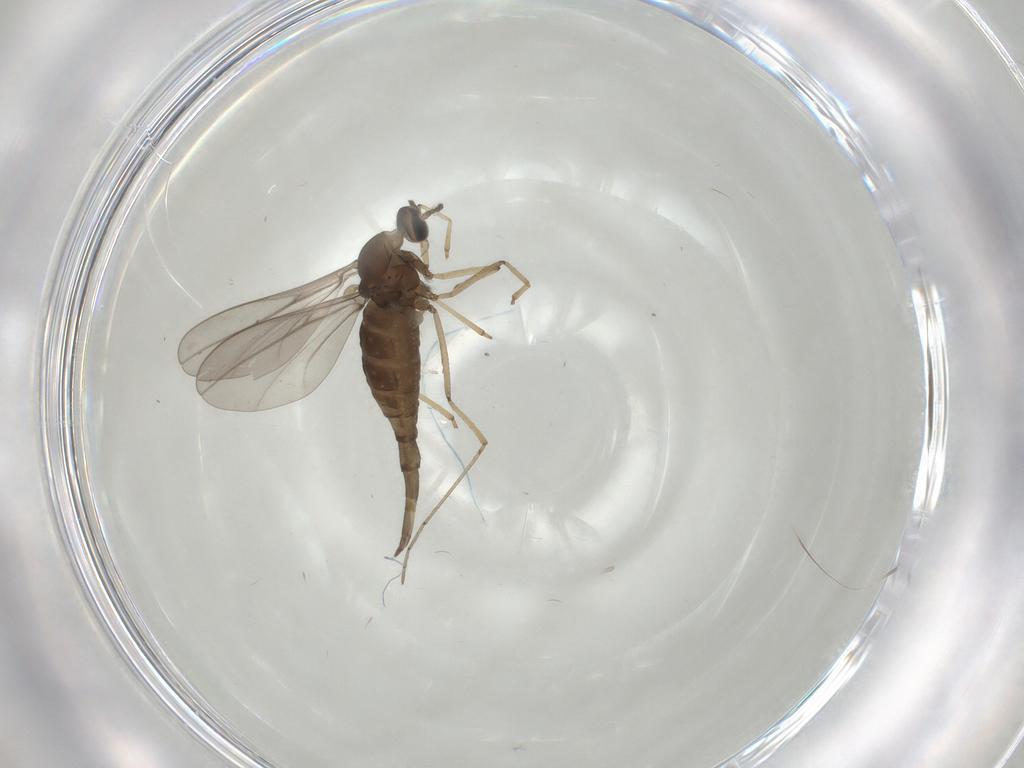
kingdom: Animalia
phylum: Arthropoda
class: Insecta
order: Diptera
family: Cecidomyiidae
